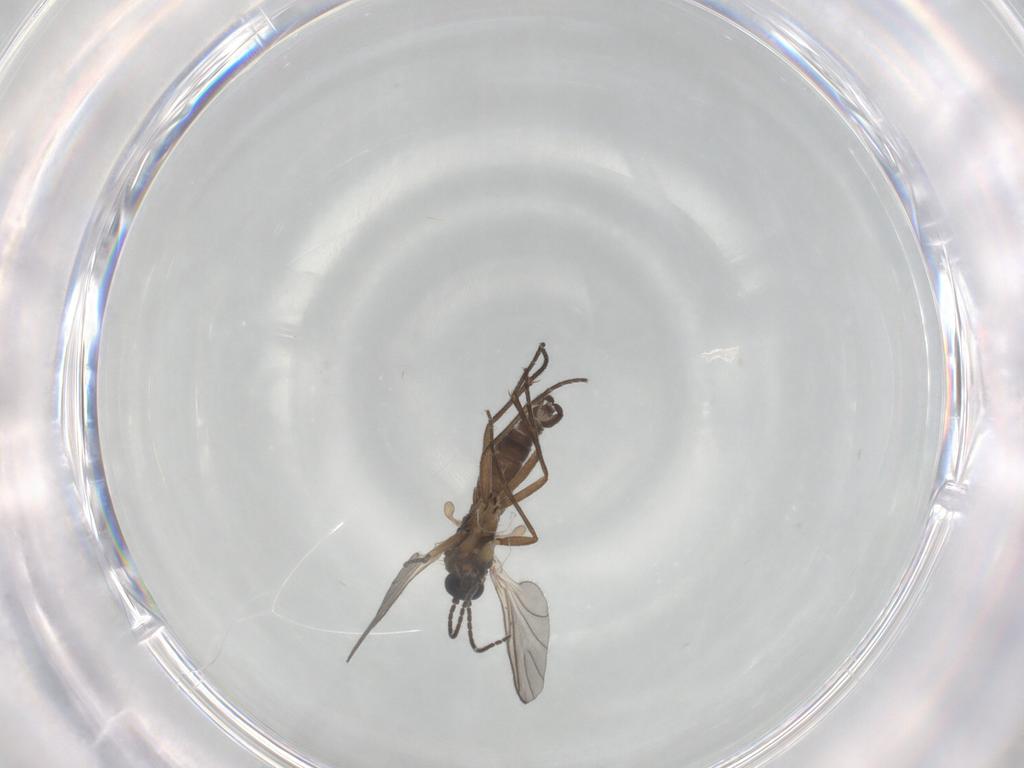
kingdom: Animalia
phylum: Arthropoda
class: Insecta
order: Diptera
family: Sciaridae
